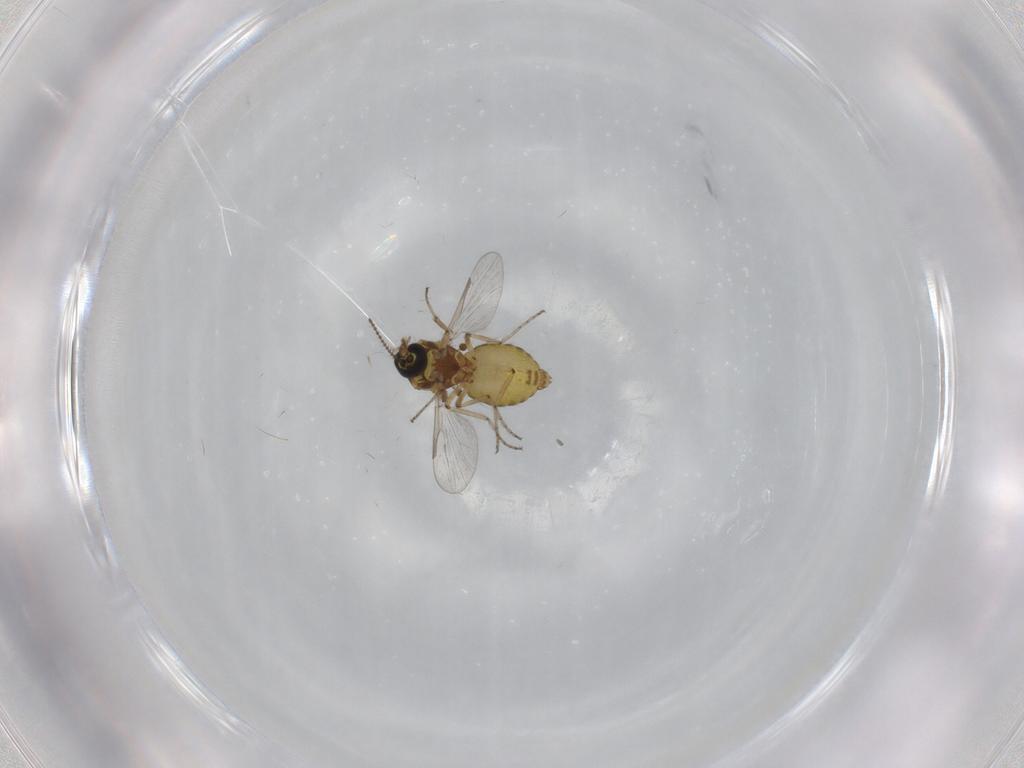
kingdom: Animalia
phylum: Arthropoda
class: Insecta
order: Diptera
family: Ceratopogonidae
